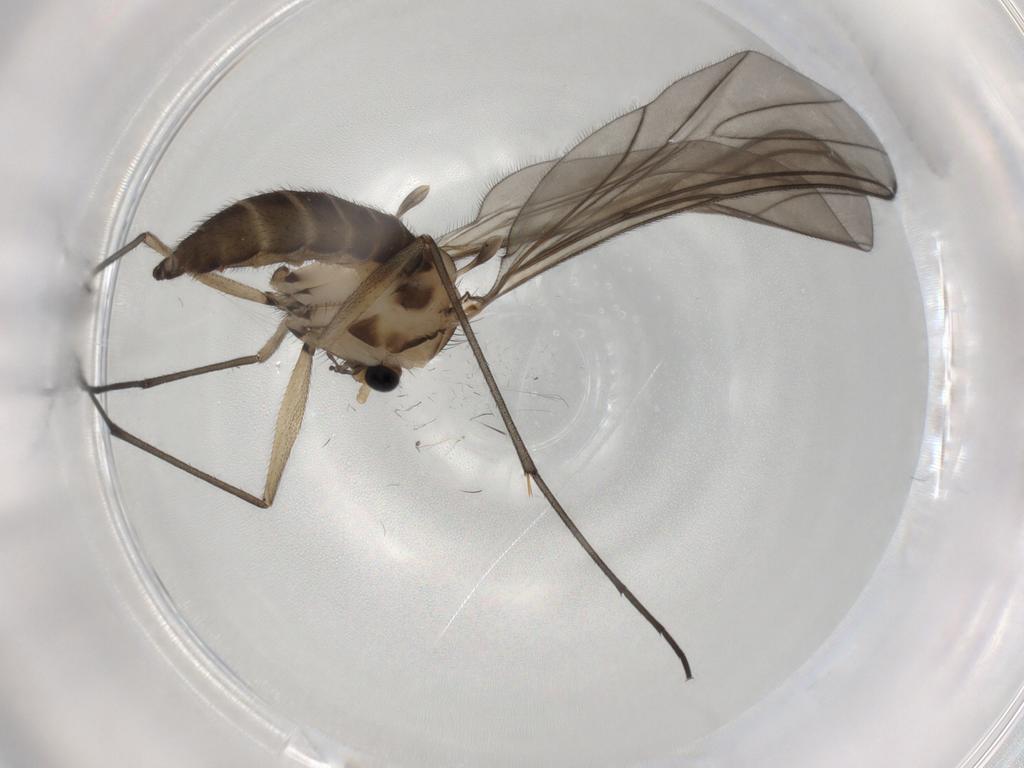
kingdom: Animalia
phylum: Arthropoda
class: Insecta
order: Diptera
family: Sciaridae
